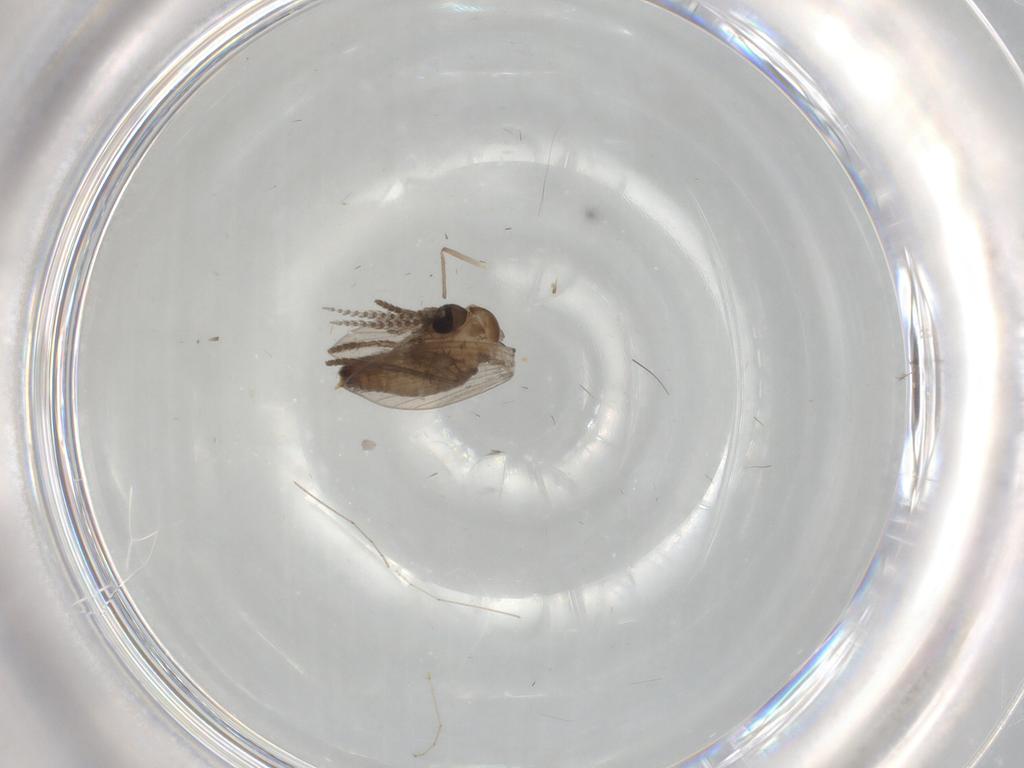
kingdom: Animalia
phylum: Arthropoda
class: Insecta
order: Diptera
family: Psychodidae
